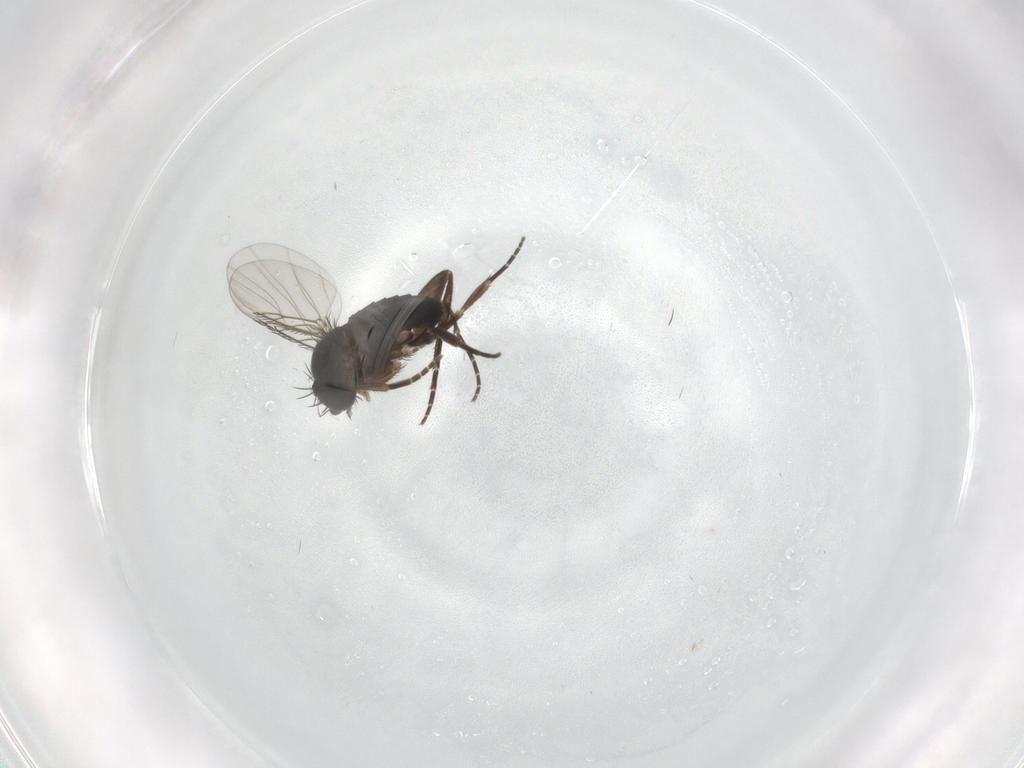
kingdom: Animalia
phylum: Arthropoda
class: Insecta
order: Diptera
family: Phoridae
